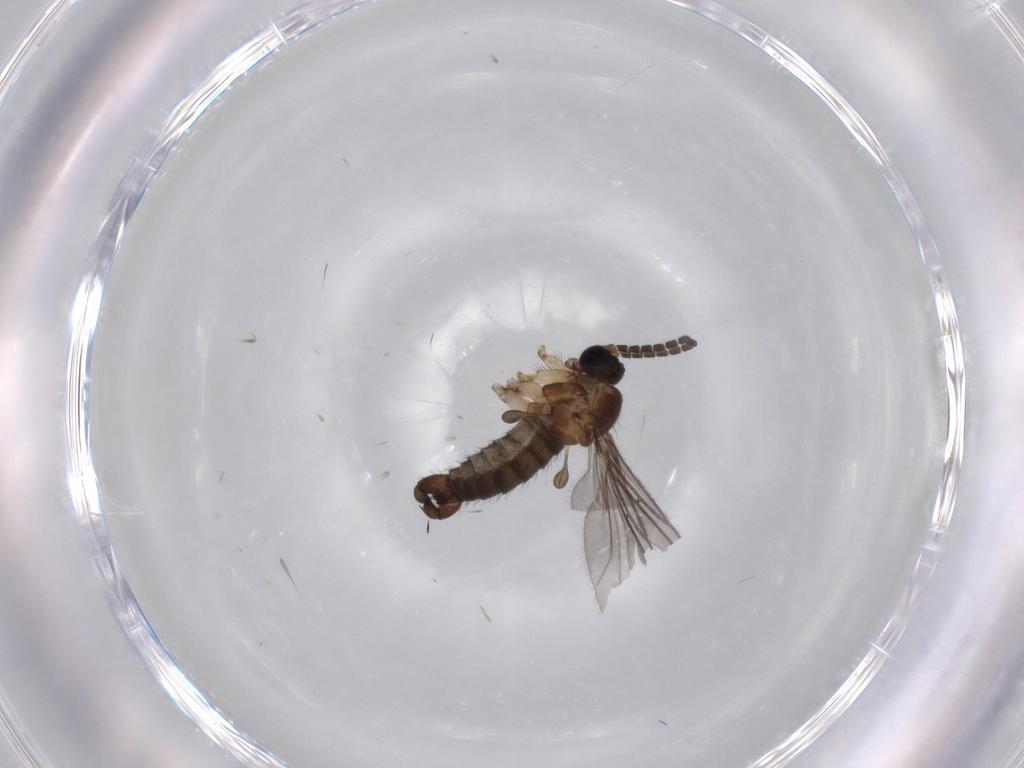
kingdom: Animalia
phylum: Arthropoda
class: Insecta
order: Diptera
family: Sciaridae
